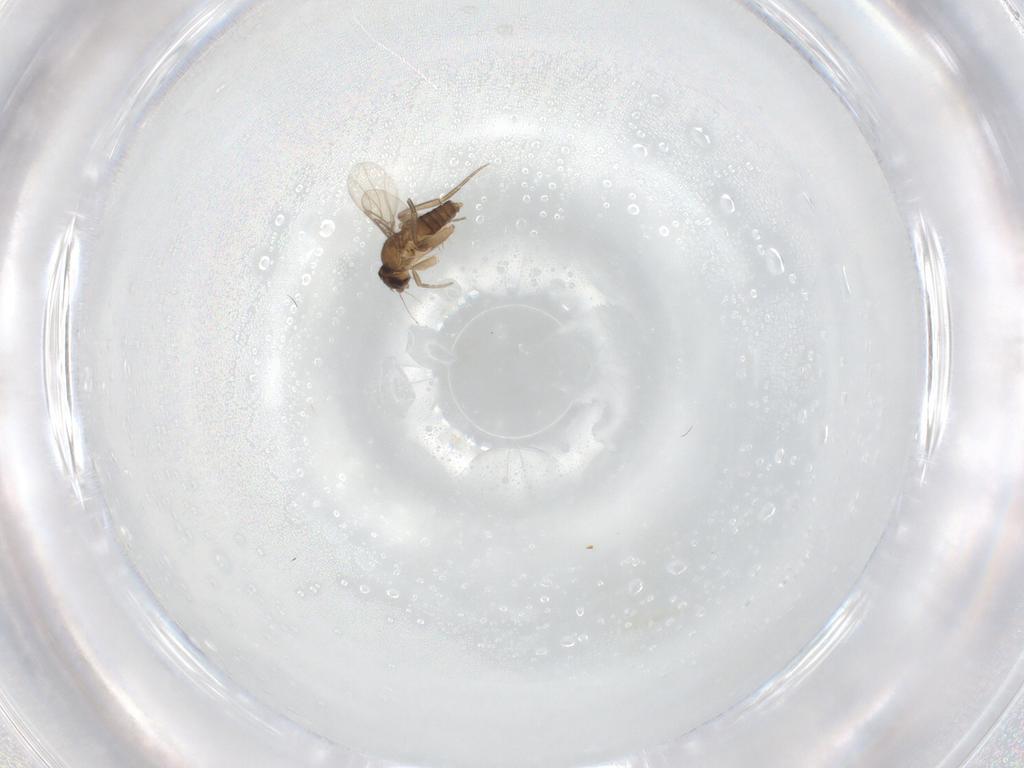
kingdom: Animalia
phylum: Arthropoda
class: Insecta
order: Diptera
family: Phoridae
